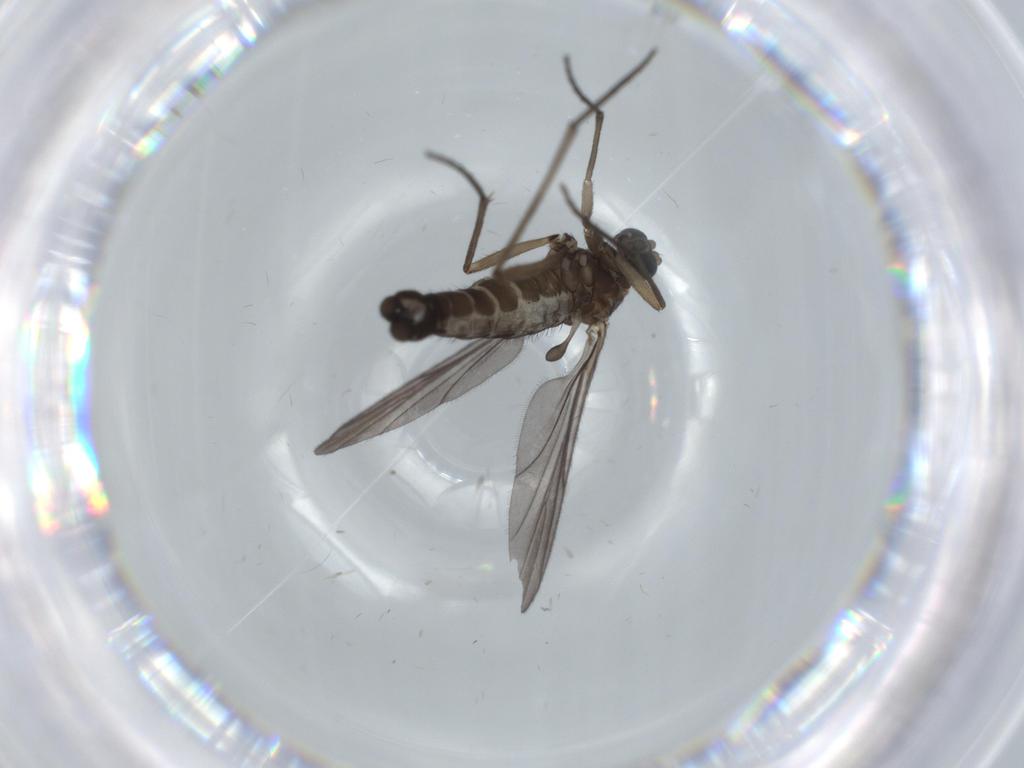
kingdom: Animalia
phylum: Arthropoda
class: Insecta
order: Diptera
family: Sciaridae
